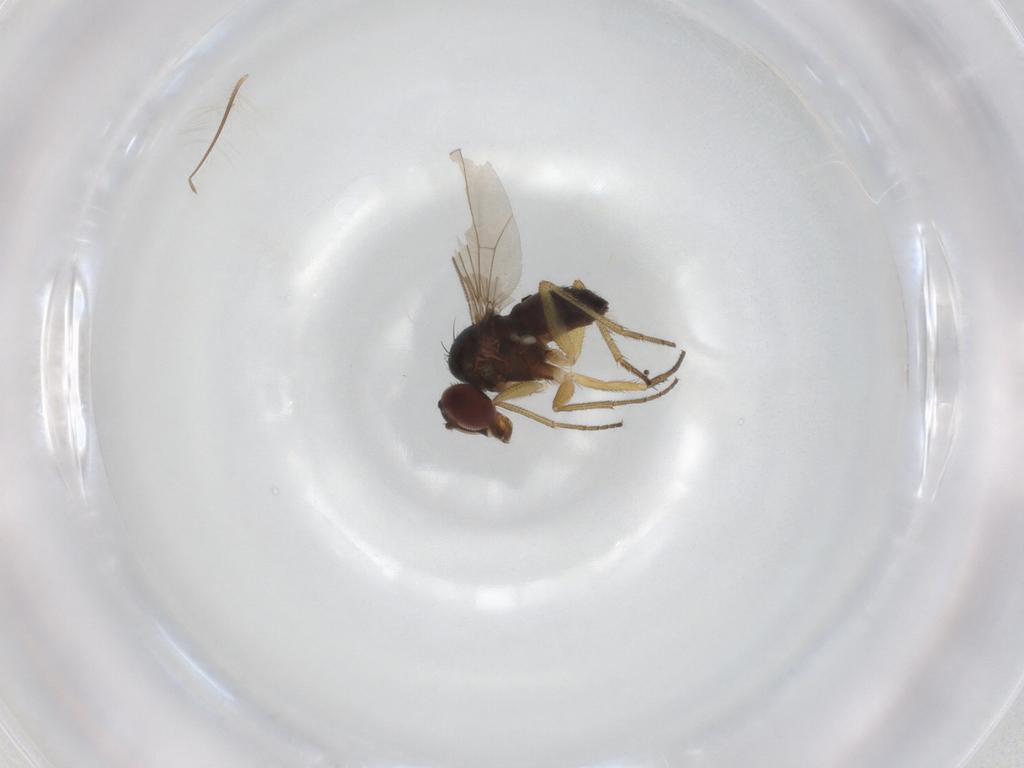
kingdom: Animalia
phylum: Arthropoda
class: Insecta
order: Diptera
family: Dolichopodidae
